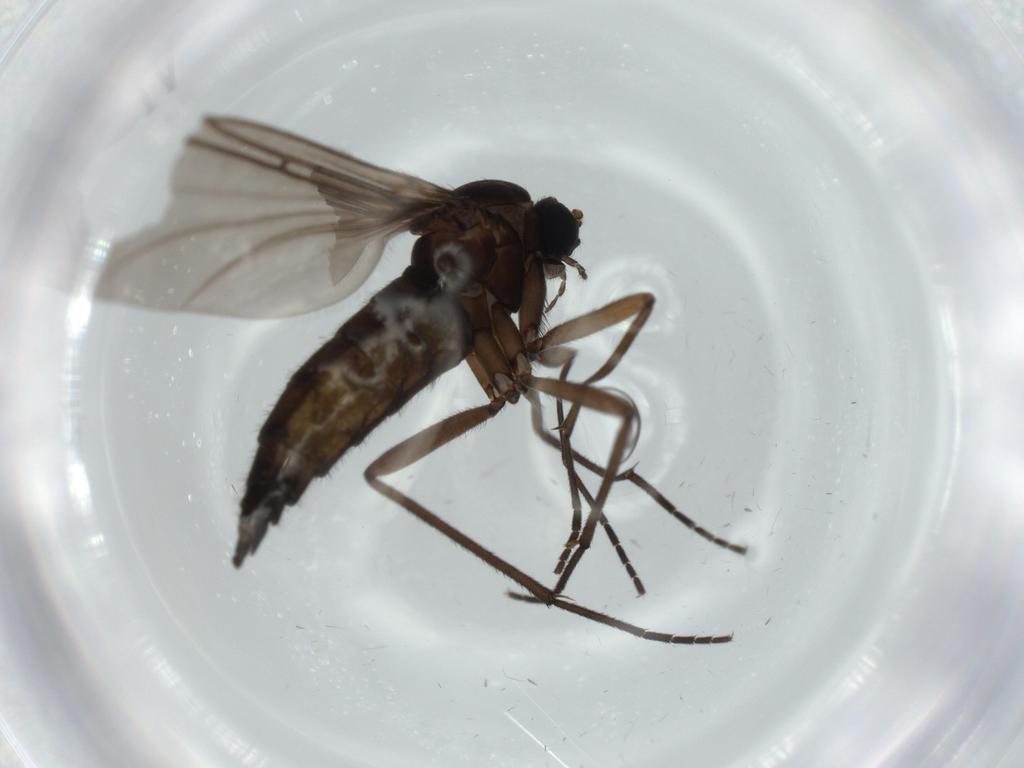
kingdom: Animalia
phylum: Arthropoda
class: Insecta
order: Diptera
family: Sciaridae
